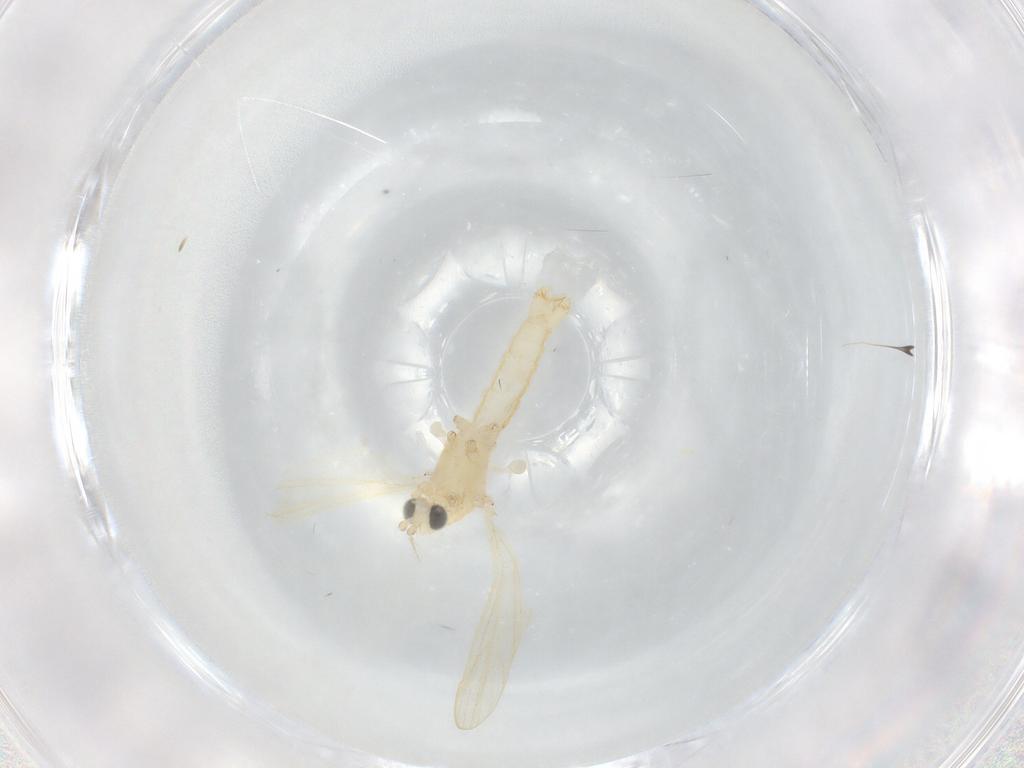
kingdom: Animalia
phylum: Arthropoda
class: Insecta
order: Diptera
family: Limoniidae
